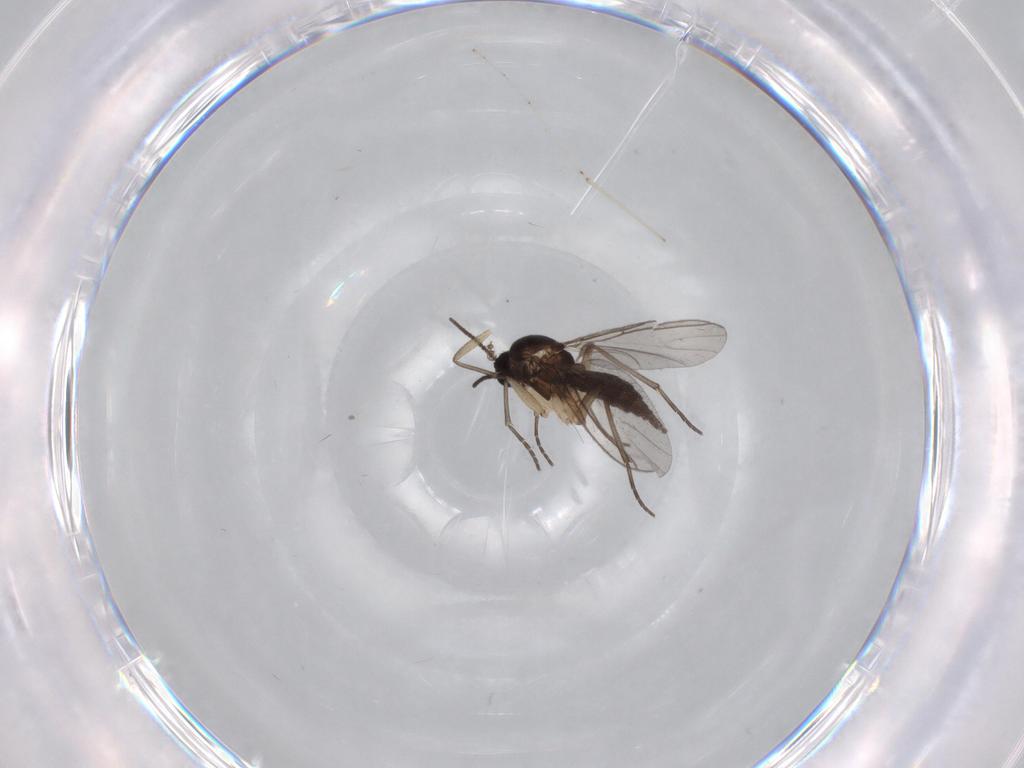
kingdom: Animalia
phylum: Arthropoda
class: Insecta
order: Diptera
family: Sciaridae
